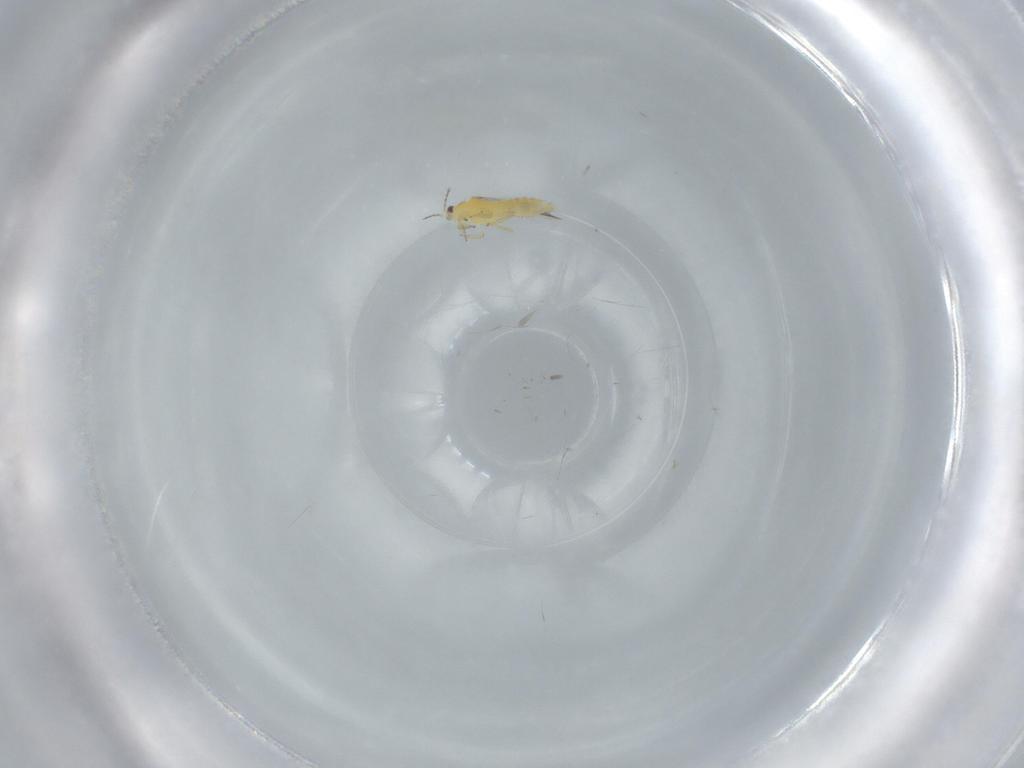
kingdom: Animalia
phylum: Arthropoda
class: Insecta
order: Thysanoptera
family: Thripidae
